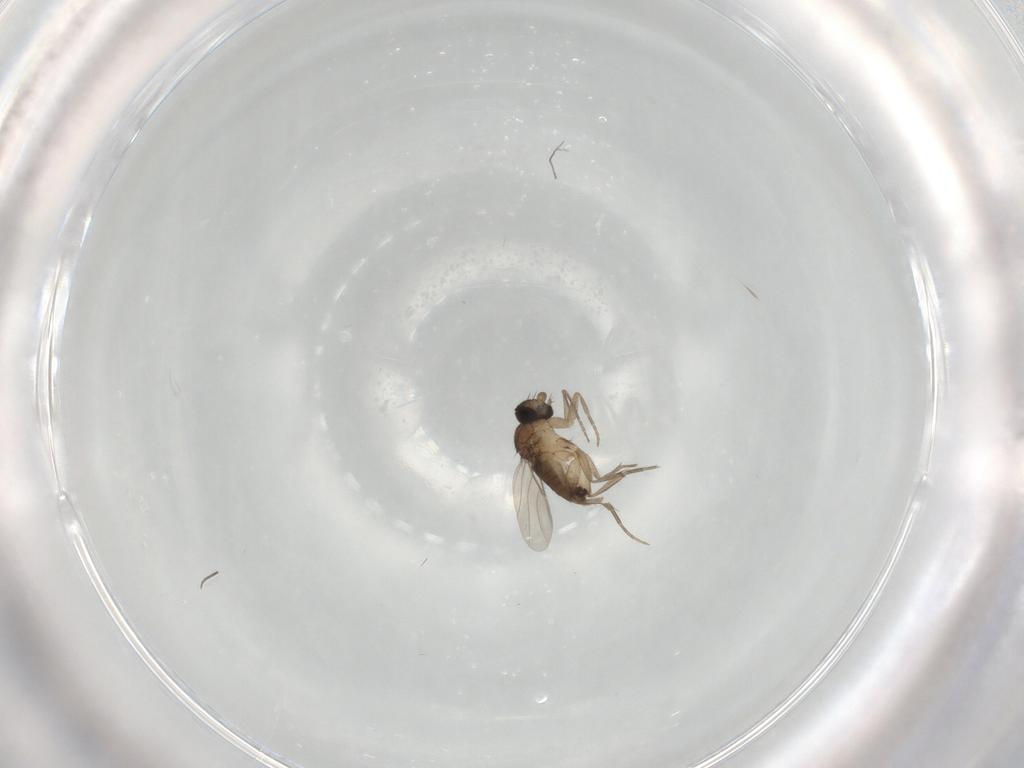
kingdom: Animalia
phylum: Arthropoda
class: Insecta
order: Diptera
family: Phoridae
